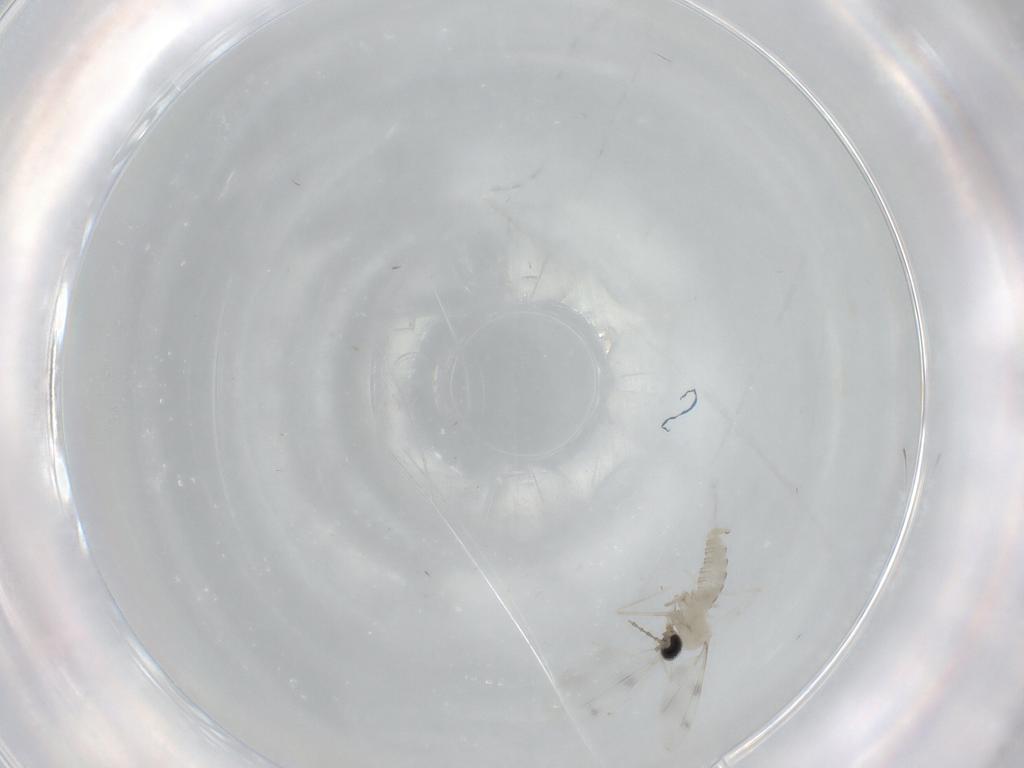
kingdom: Animalia
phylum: Arthropoda
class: Insecta
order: Diptera
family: Cecidomyiidae
